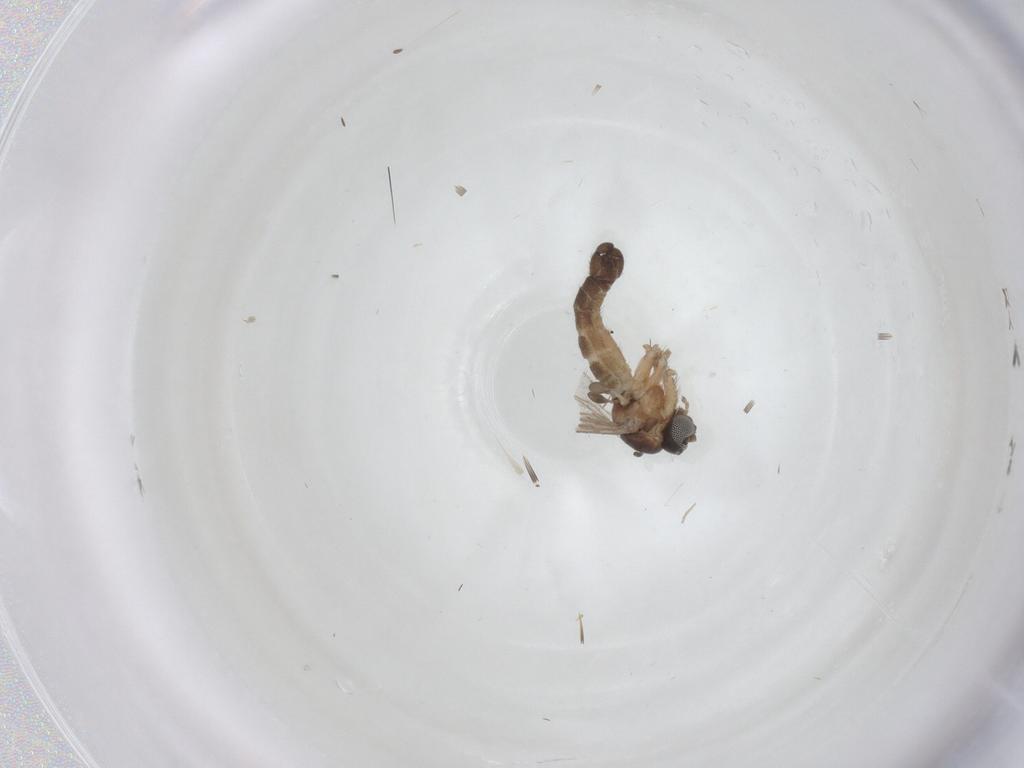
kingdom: Animalia
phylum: Arthropoda
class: Insecta
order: Diptera
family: Sciaridae
